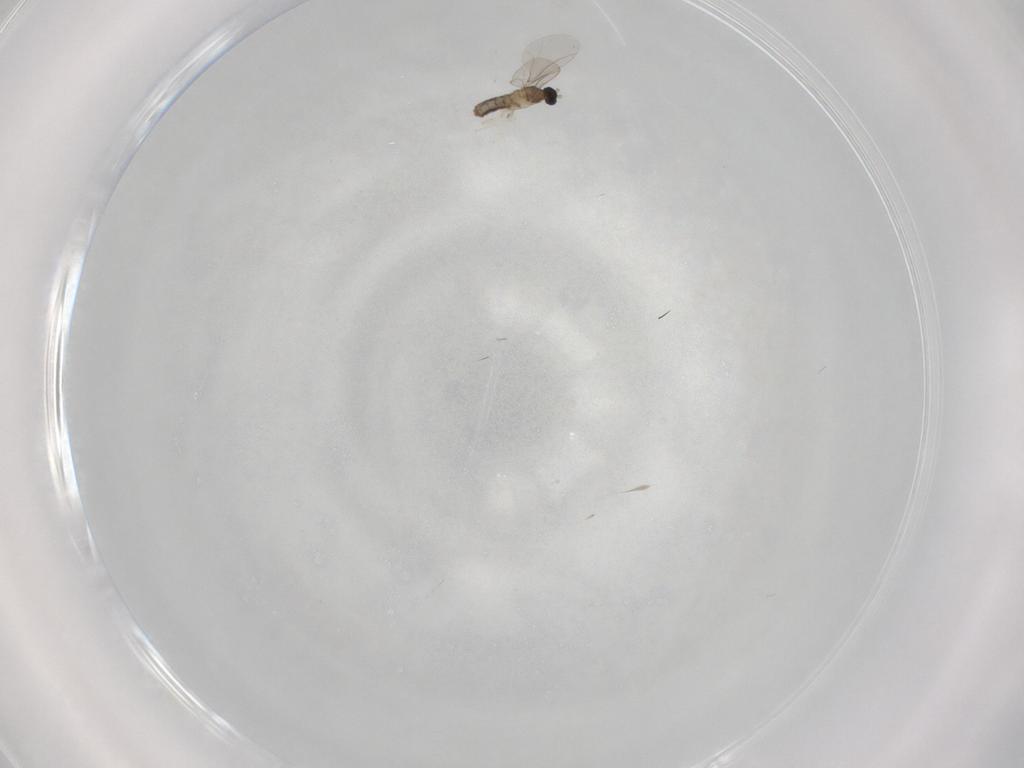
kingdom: Animalia
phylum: Arthropoda
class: Insecta
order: Diptera
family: Cecidomyiidae
